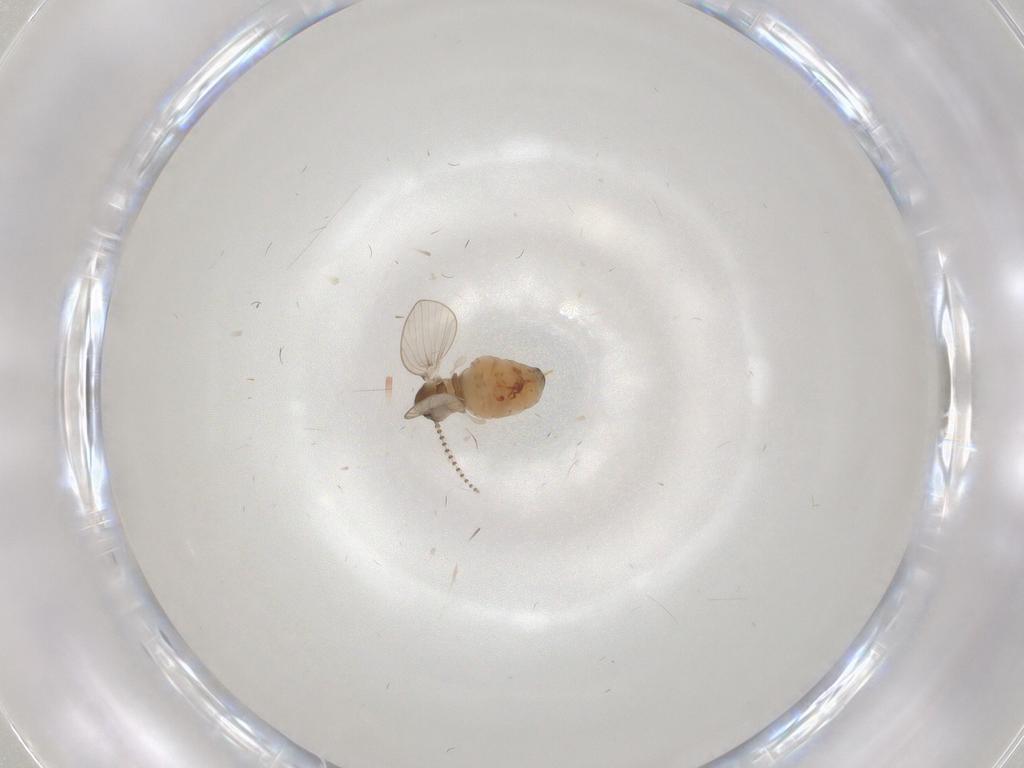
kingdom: Animalia
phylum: Arthropoda
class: Insecta
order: Diptera
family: Psychodidae
